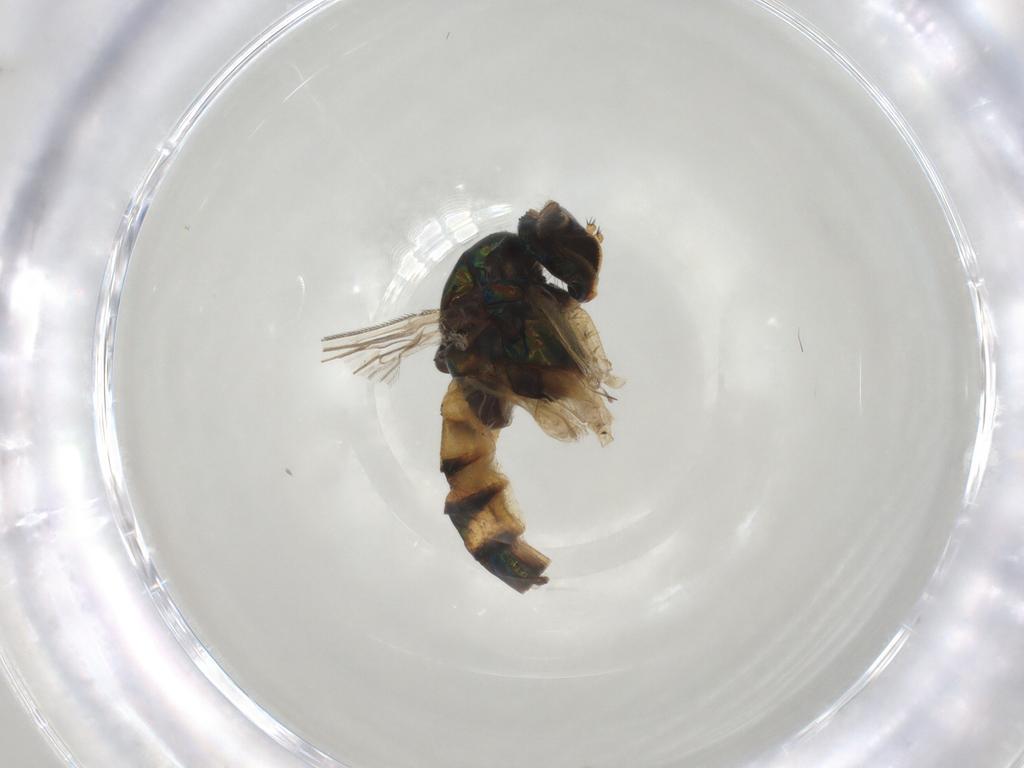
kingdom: Animalia
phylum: Arthropoda
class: Insecta
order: Diptera
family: Dolichopodidae
